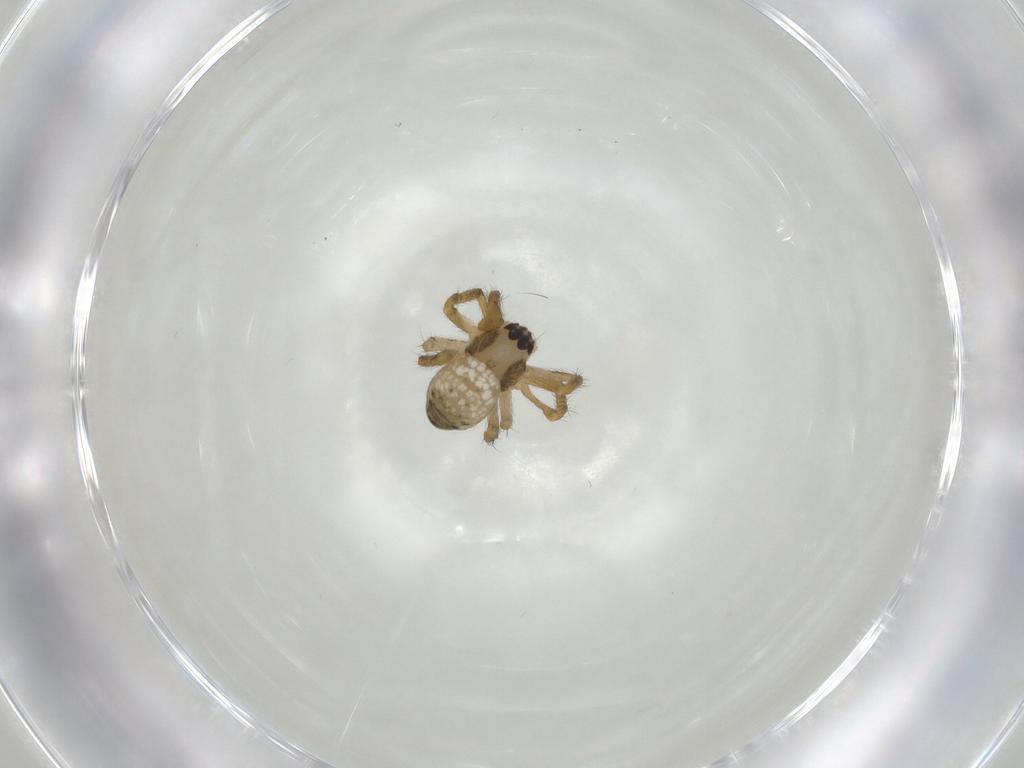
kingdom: Animalia
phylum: Arthropoda
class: Arachnida
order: Araneae
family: Araneidae
